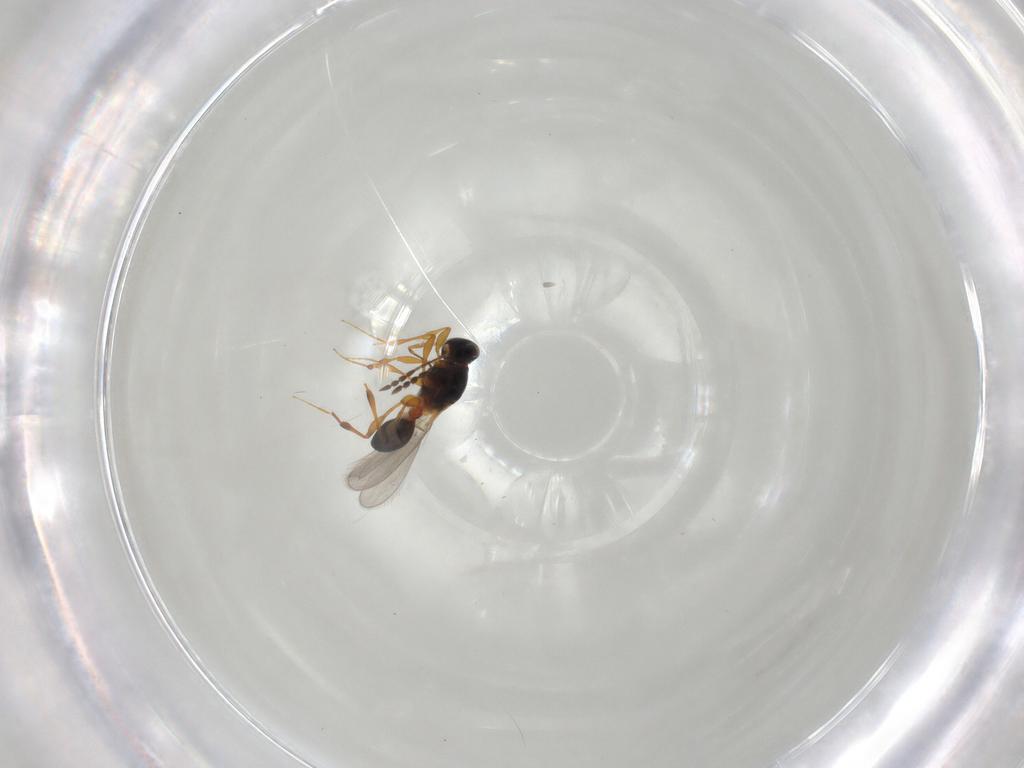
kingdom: Animalia
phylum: Arthropoda
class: Insecta
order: Hymenoptera
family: Platygastridae
